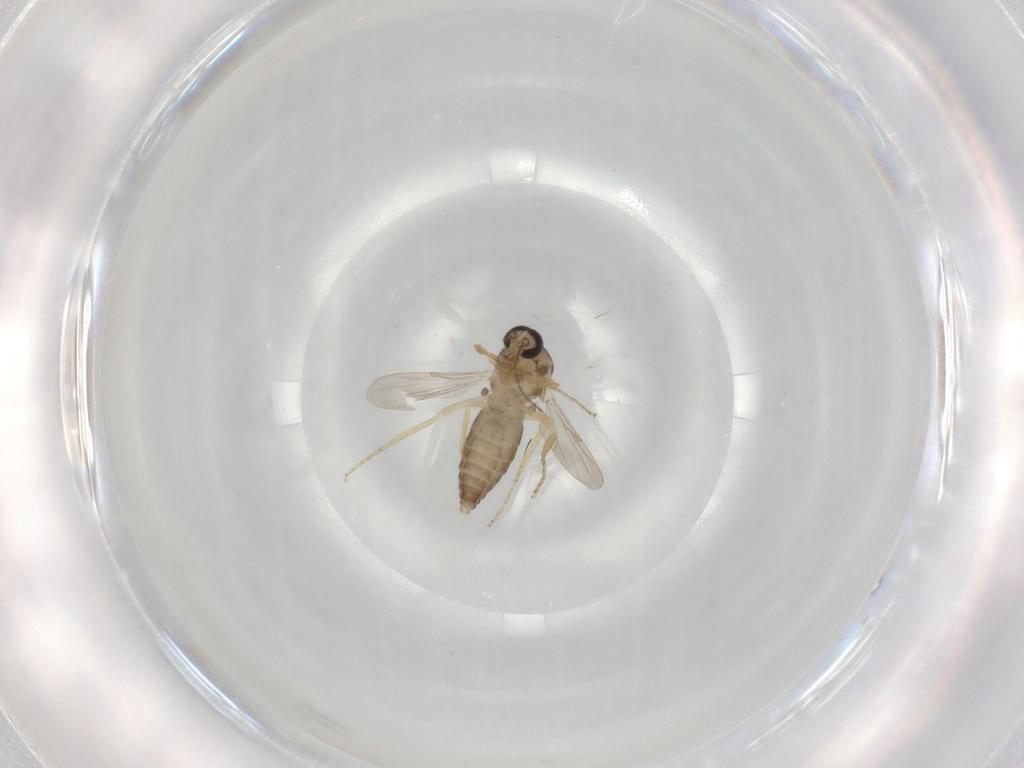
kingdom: Animalia
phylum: Arthropoda
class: Insecta
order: Diptera
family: Ceratopogonidae
